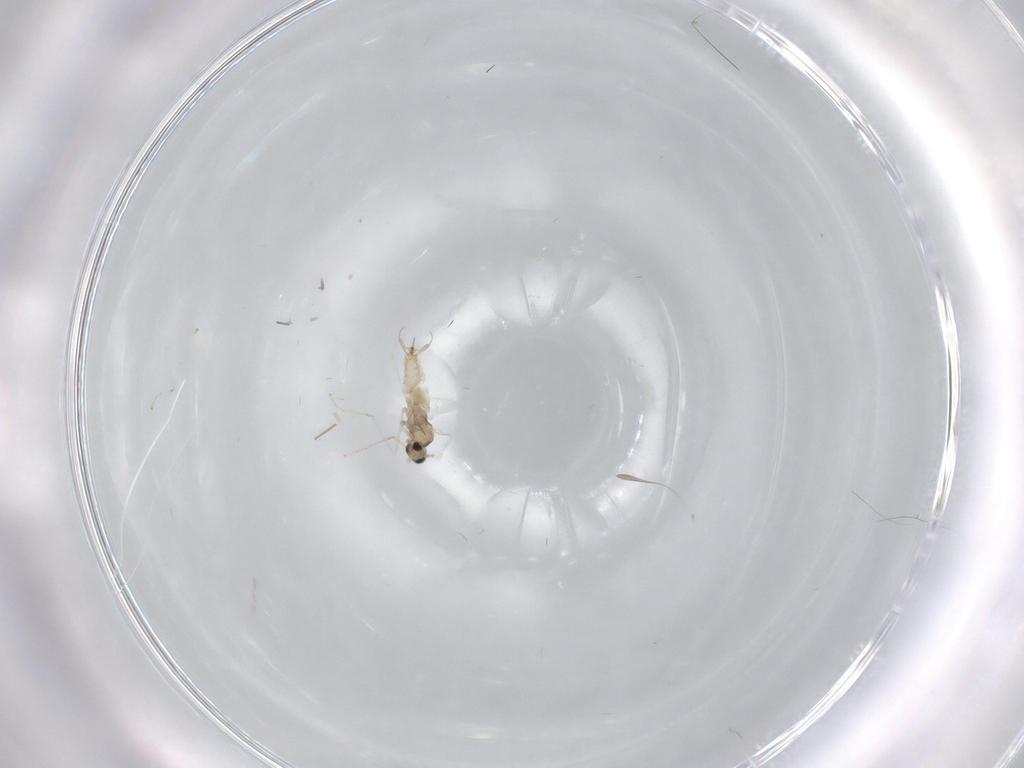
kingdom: Animalia
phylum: Arthropoda
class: Insecta
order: Diptera
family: Cecidomyiidae
